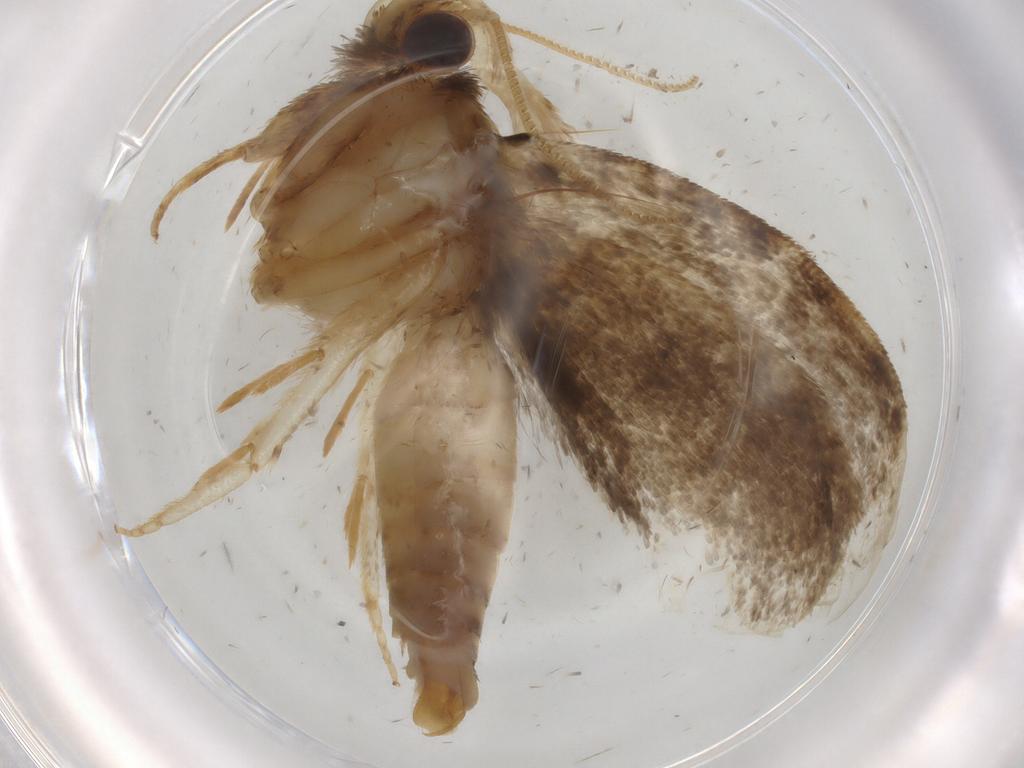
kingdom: Animalia
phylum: Arthropoda
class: Insecta
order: Lepidoptera
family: Tineidae
